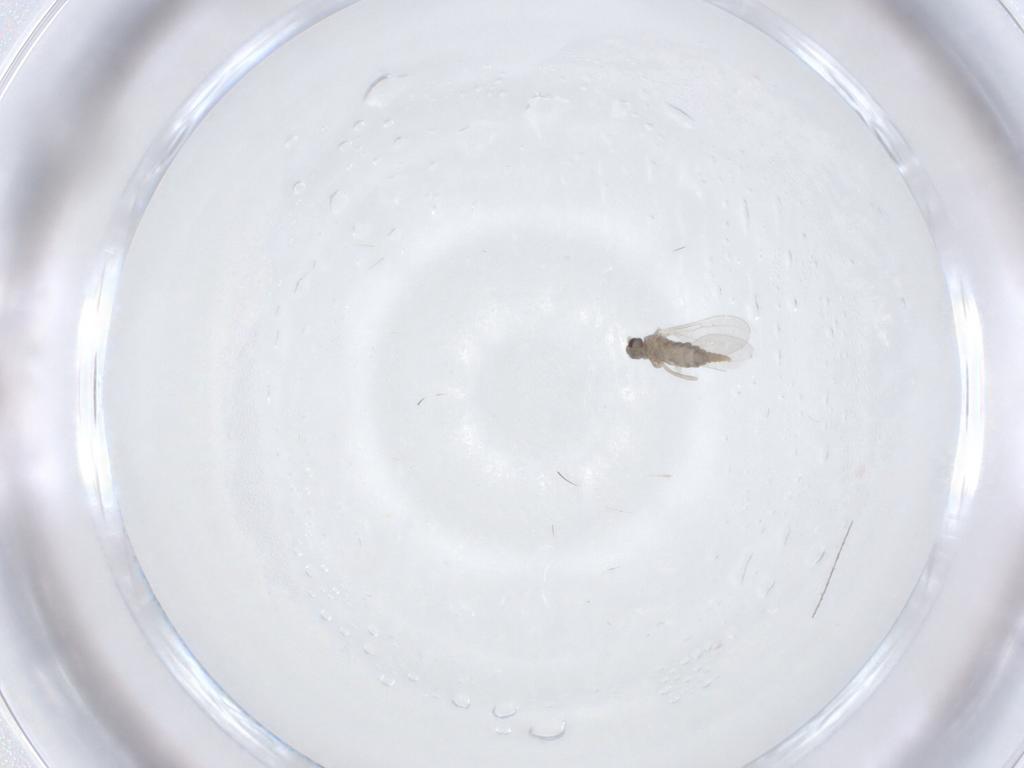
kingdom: Animalia
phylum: Arthropoda
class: Insecta
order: Diptera
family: Cecidomyiidae
